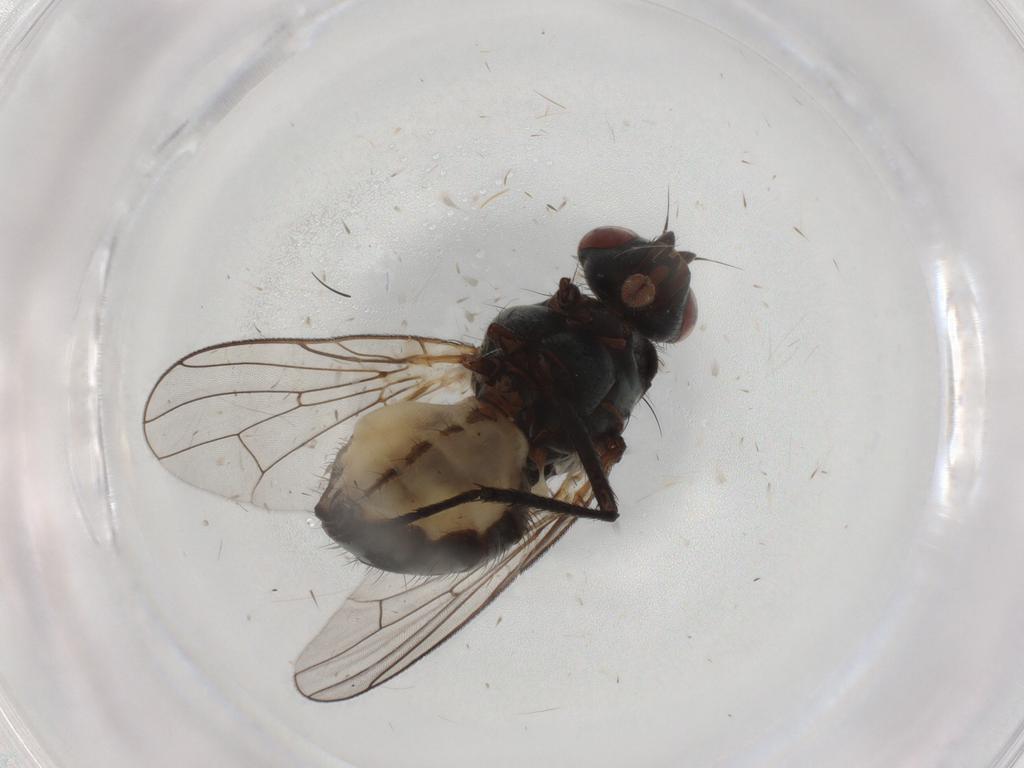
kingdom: Animalia
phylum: Arthropoda
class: Insecta
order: Diptera
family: Anthomyiidae
